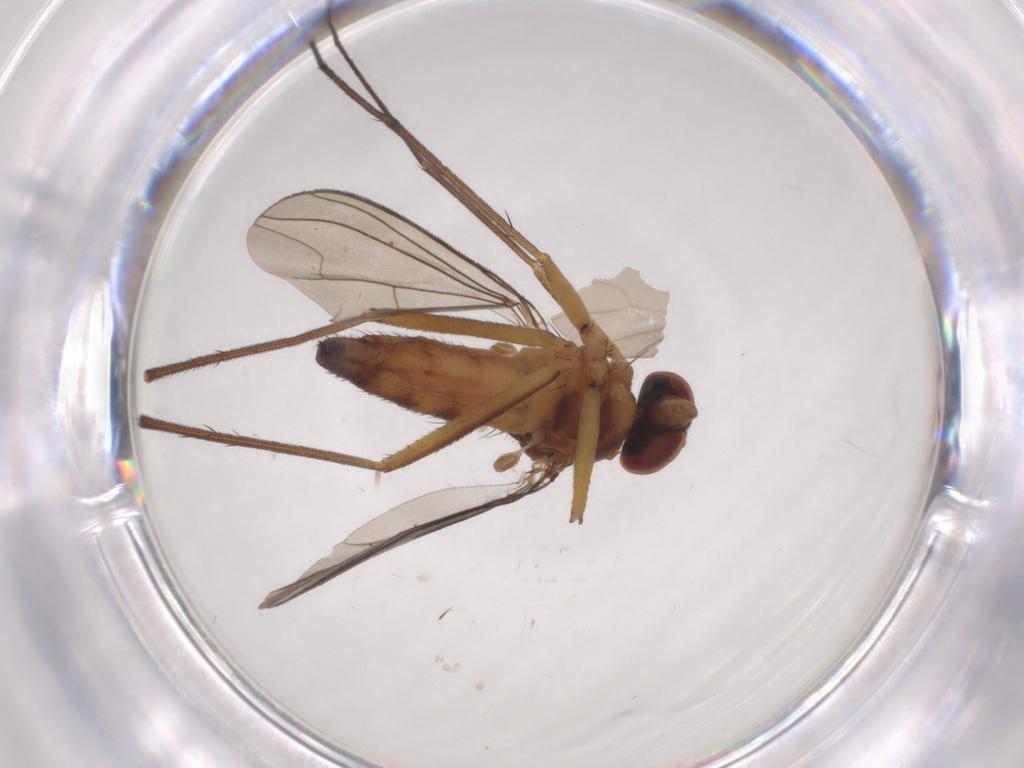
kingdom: Animalia
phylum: Arthropoda
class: Insecta
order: Diptera
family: Dolichopodidae
